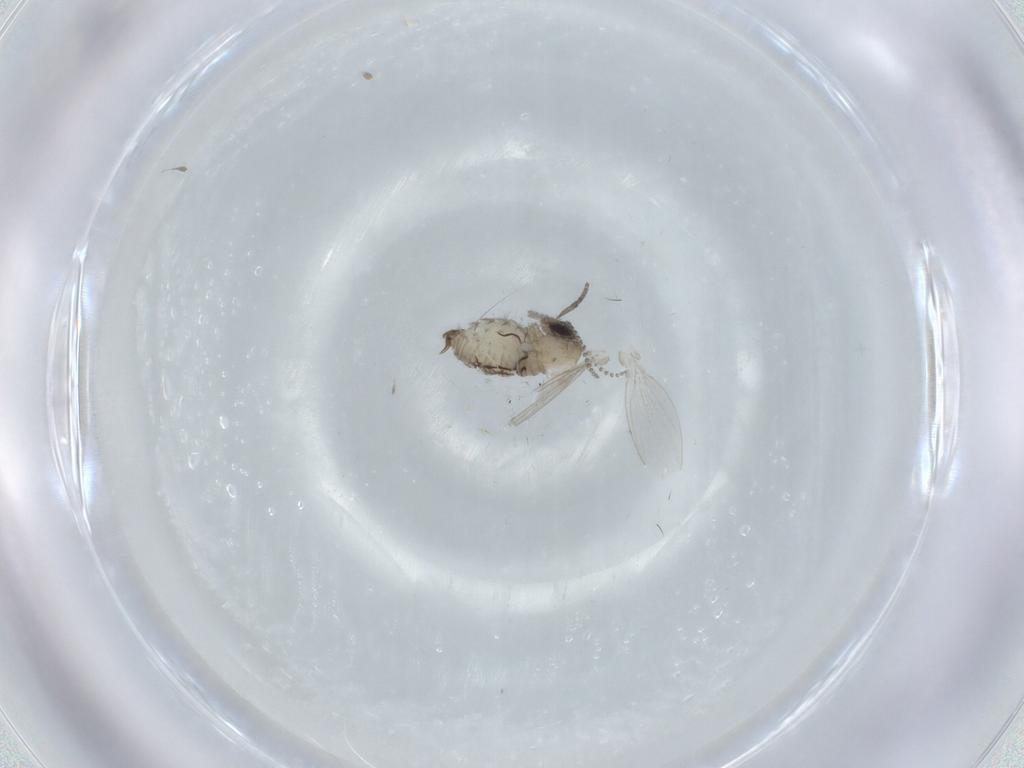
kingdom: Animalia
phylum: Arthropoda
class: Insecta
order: Diptera
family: Psychodidae
